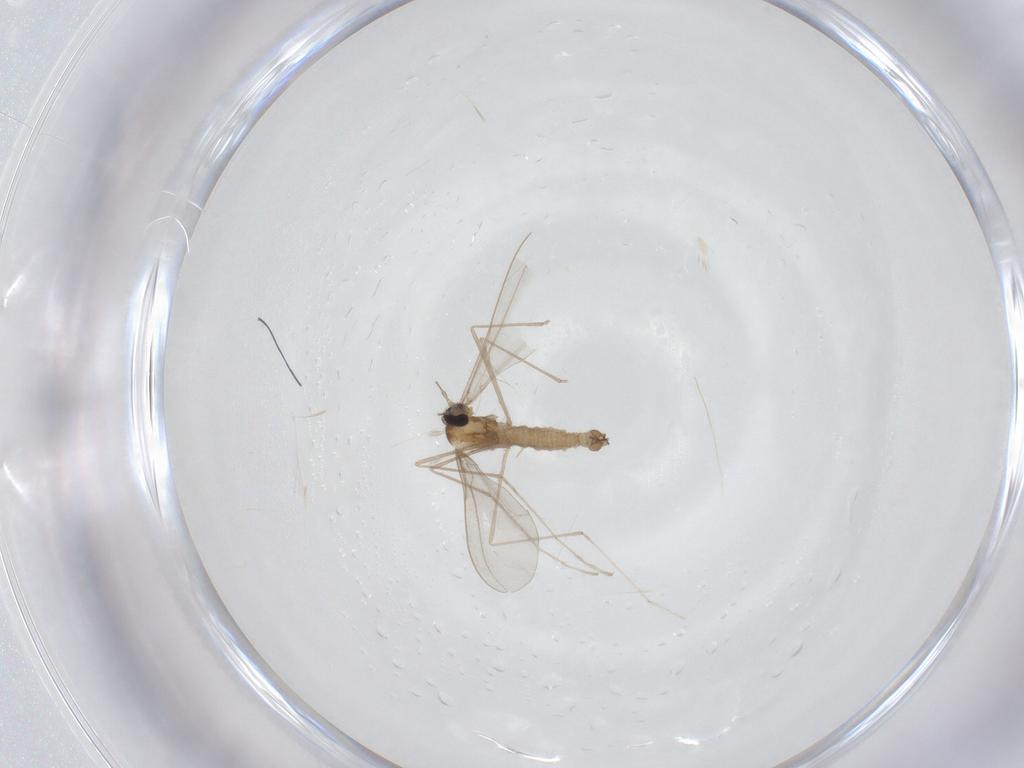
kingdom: Animalia
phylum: Arthropoda
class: Insecta
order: Diptera
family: Cecidomyiidae
